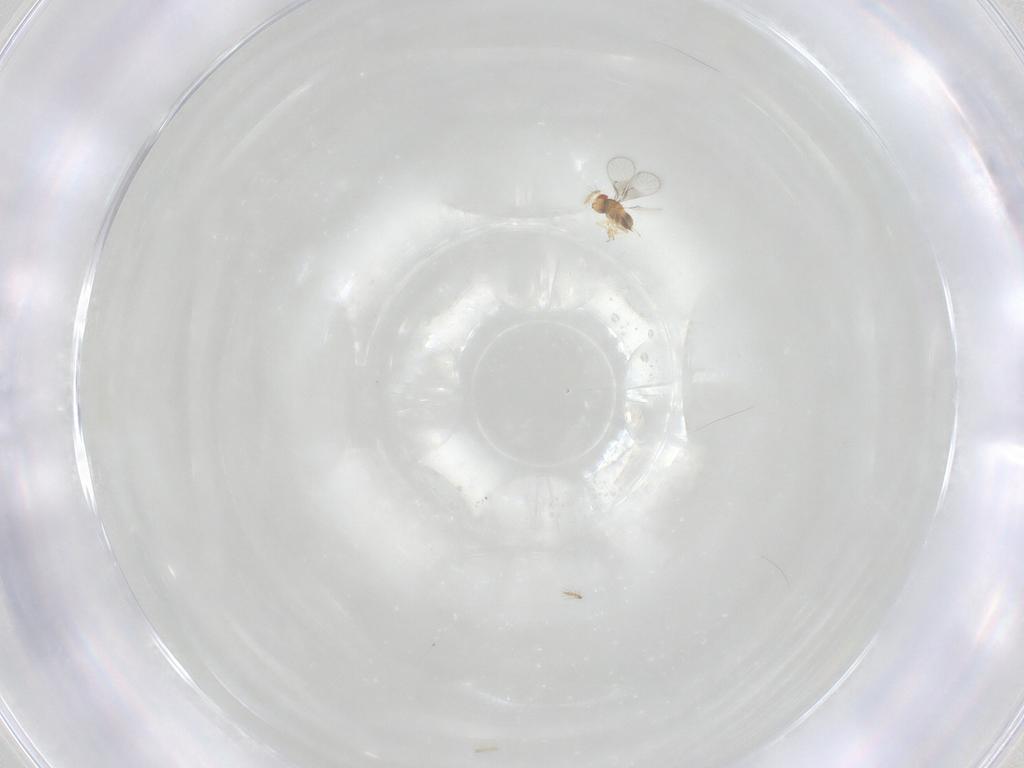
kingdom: Animalia
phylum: Arthropoda
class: Insecta
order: Hymenoptera
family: Trichogrammatidae
